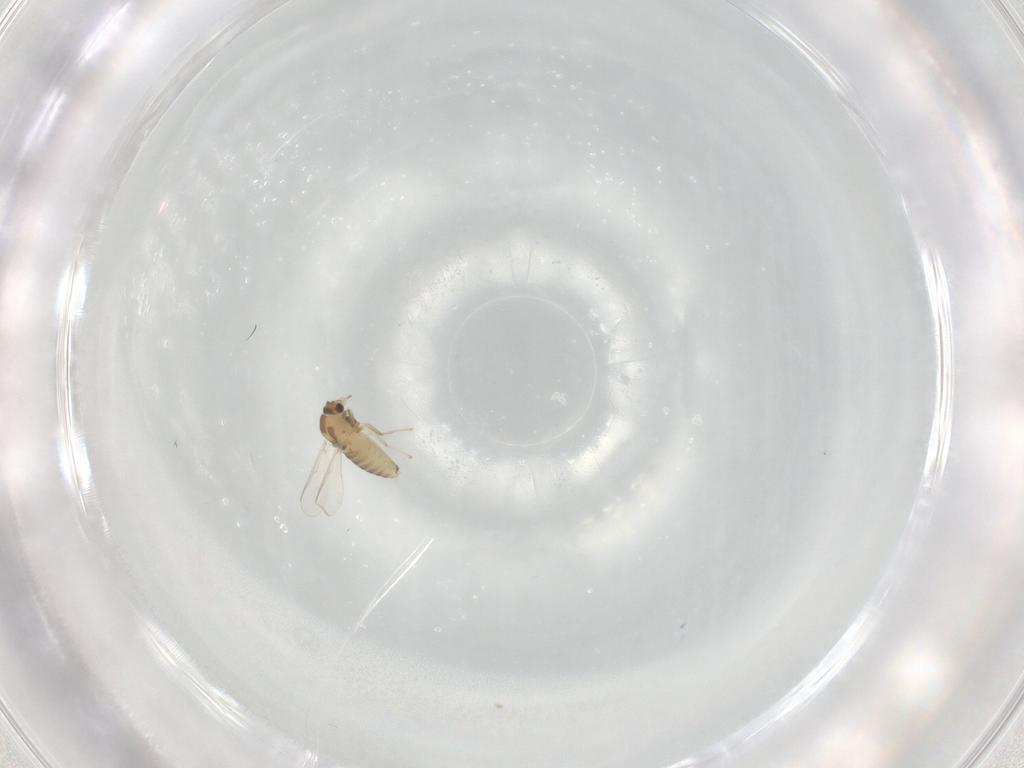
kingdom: Animalia
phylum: Arthropoda
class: Insecta
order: Diptera
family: Chironomidae
